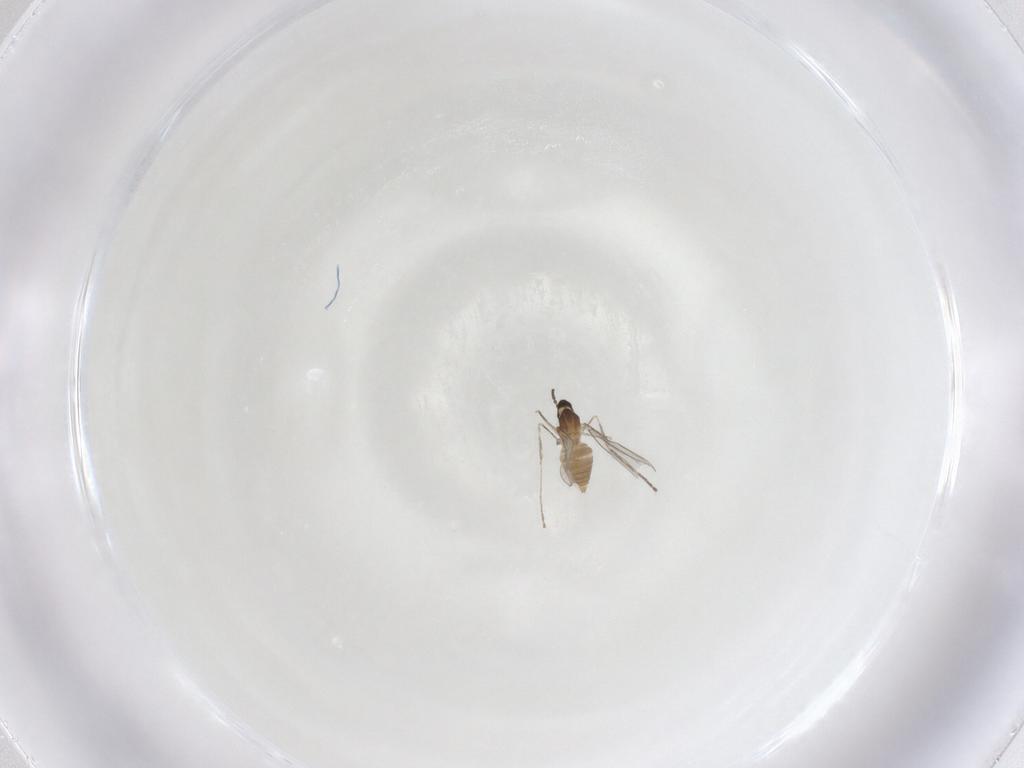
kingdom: Animalia
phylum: Arthropoda
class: Insecta
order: Diptera
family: Cecidomyiidae
